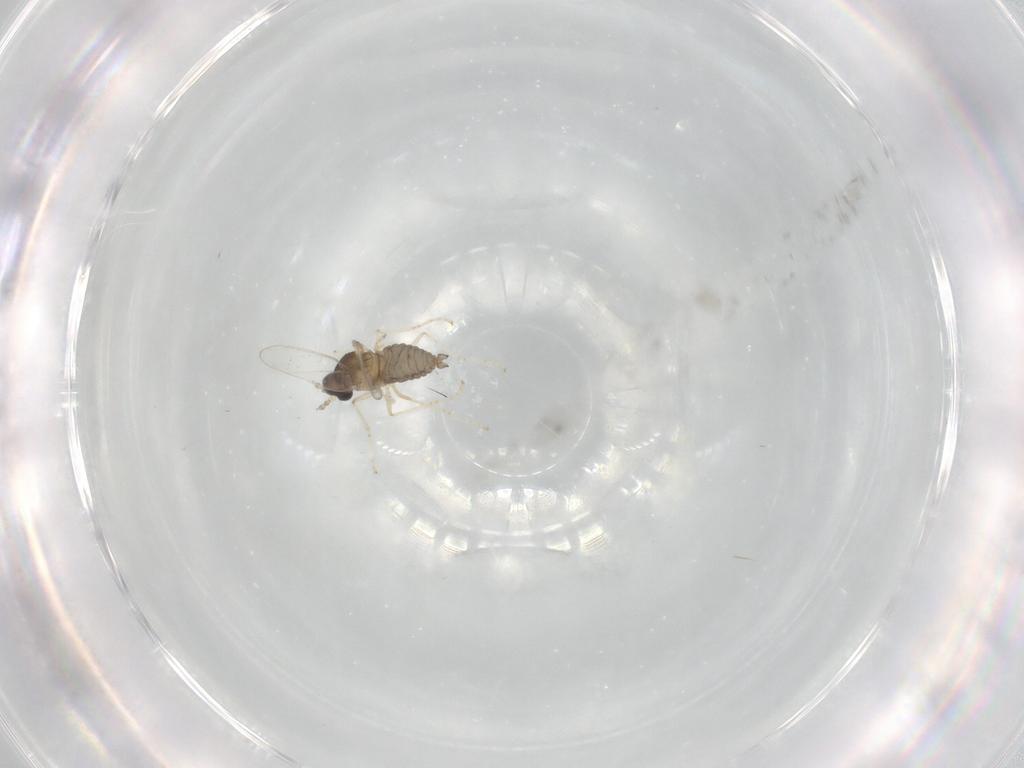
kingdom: Animalia
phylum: Arthropoda
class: Insecta
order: Diptera
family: Cecidomyiidae
